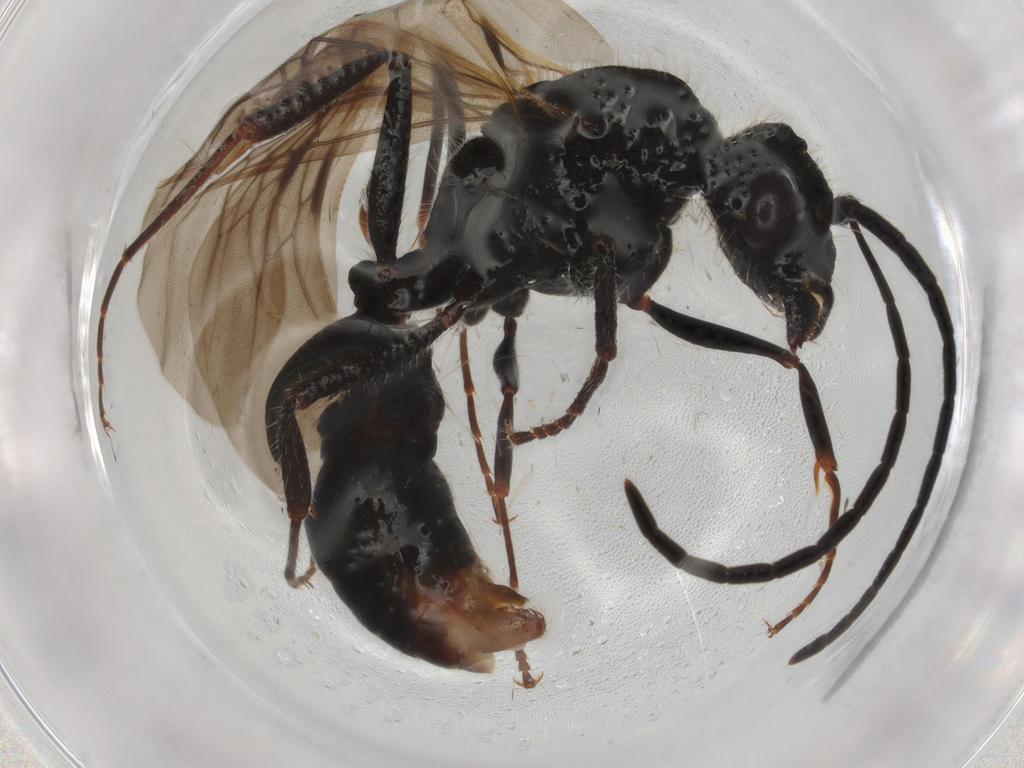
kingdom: Animalia
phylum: Arthropoda
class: Insecta
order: Hymenoptera
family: Formicidae
